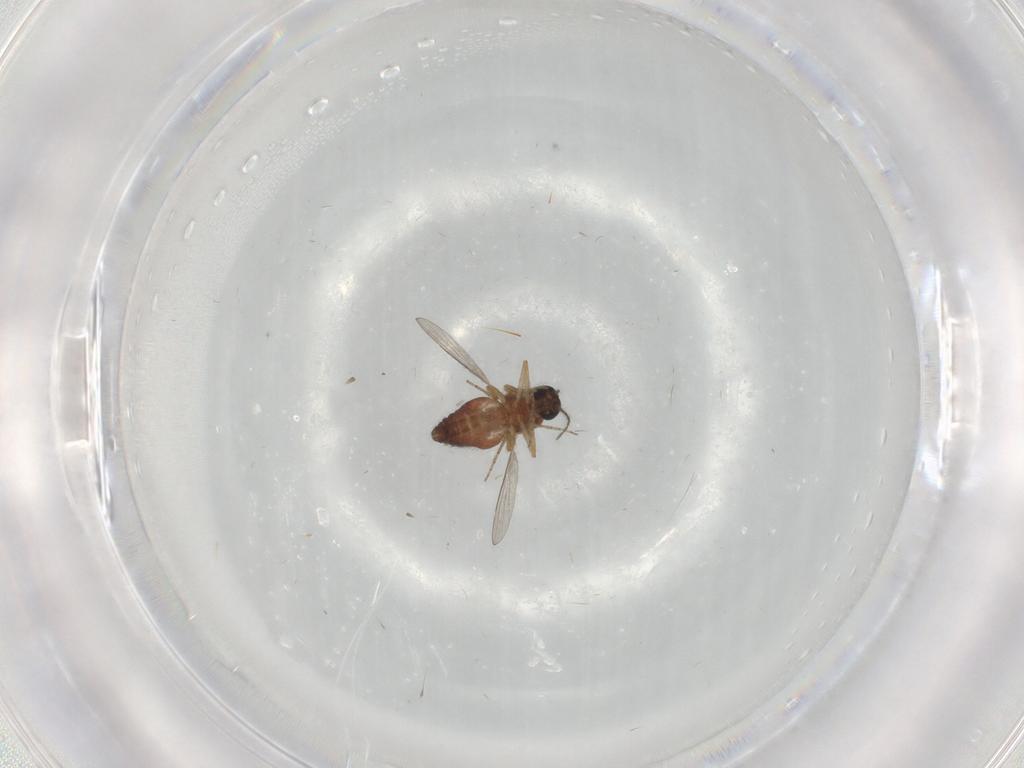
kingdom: Animalia
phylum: Arthropoda
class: Insecta
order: Diptera
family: Ceratopogonidae
